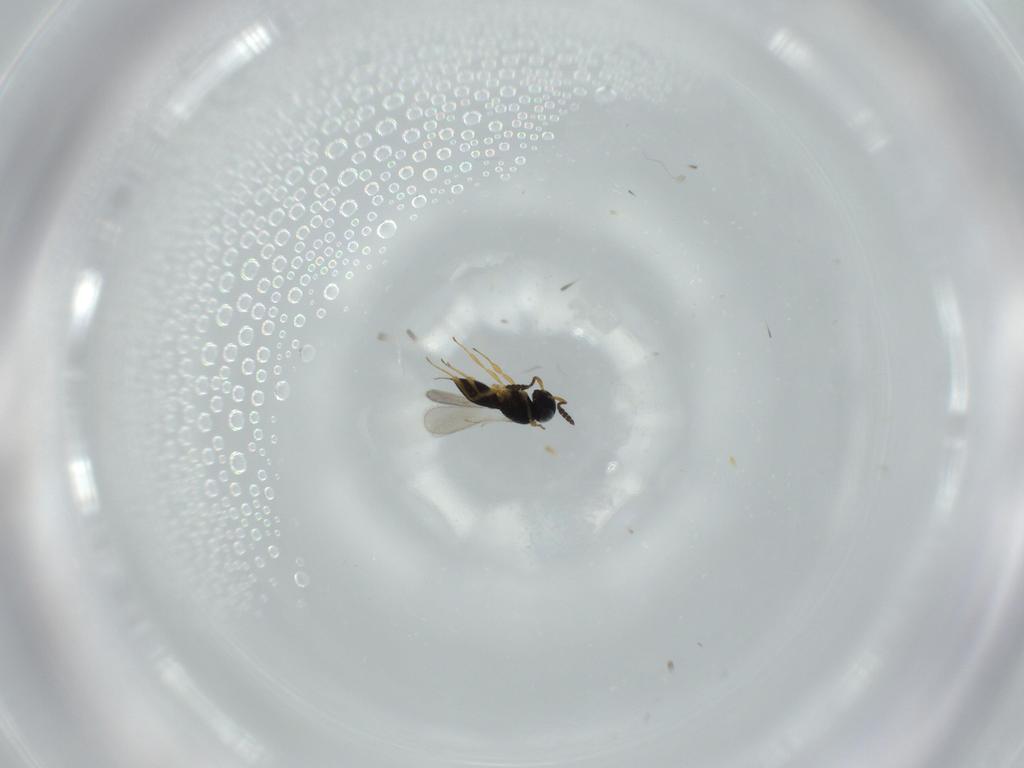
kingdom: Animalia
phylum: Arthropoda
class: Insecta
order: Hymenoptera
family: Scelionidae
